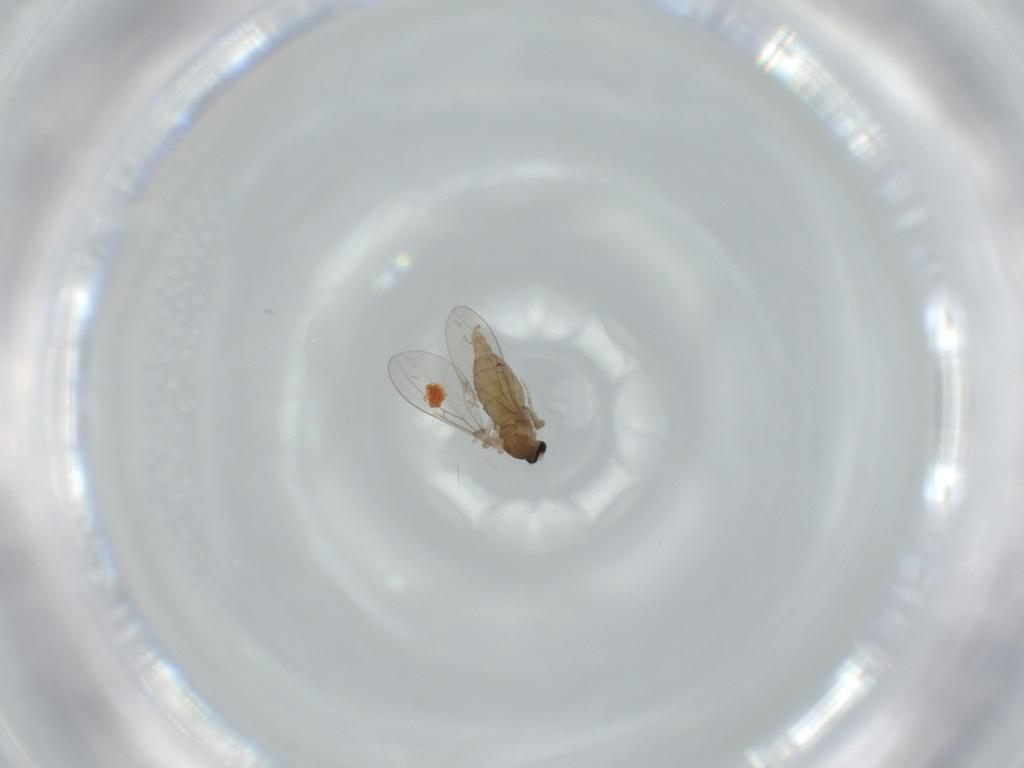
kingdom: Animalia
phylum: Arthropoda
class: Insecta
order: Diptera
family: Cecidomyiidae
